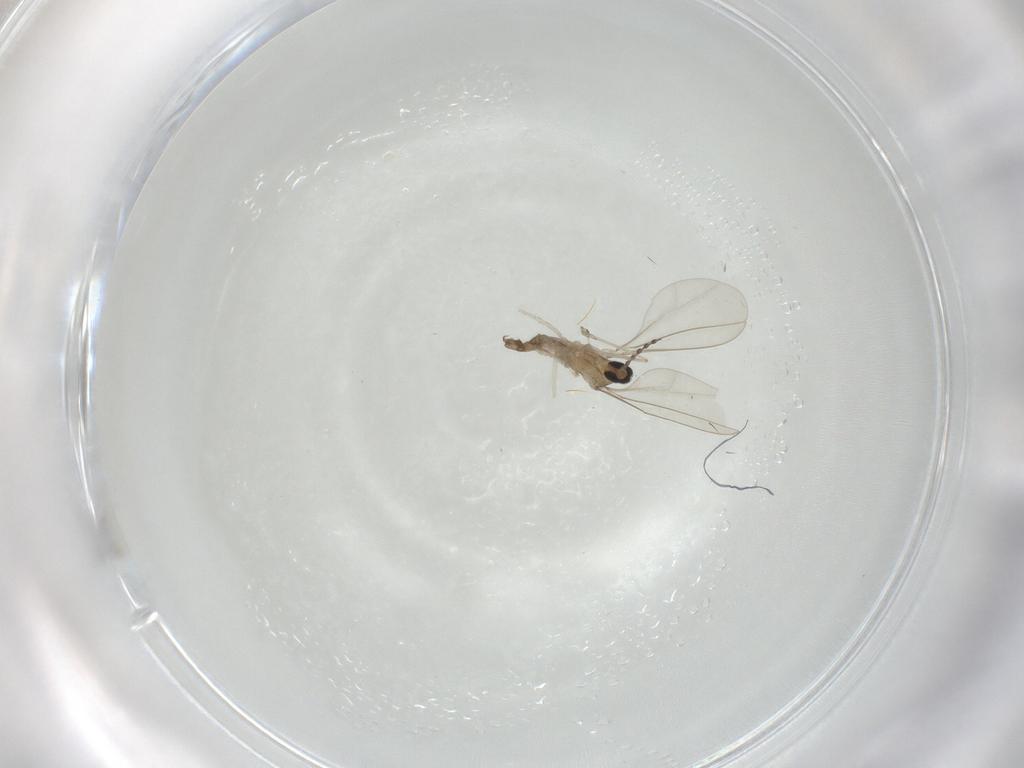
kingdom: Animalia
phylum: Arthropoda
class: Insecta
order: Diptera
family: Cecidomyiidae
